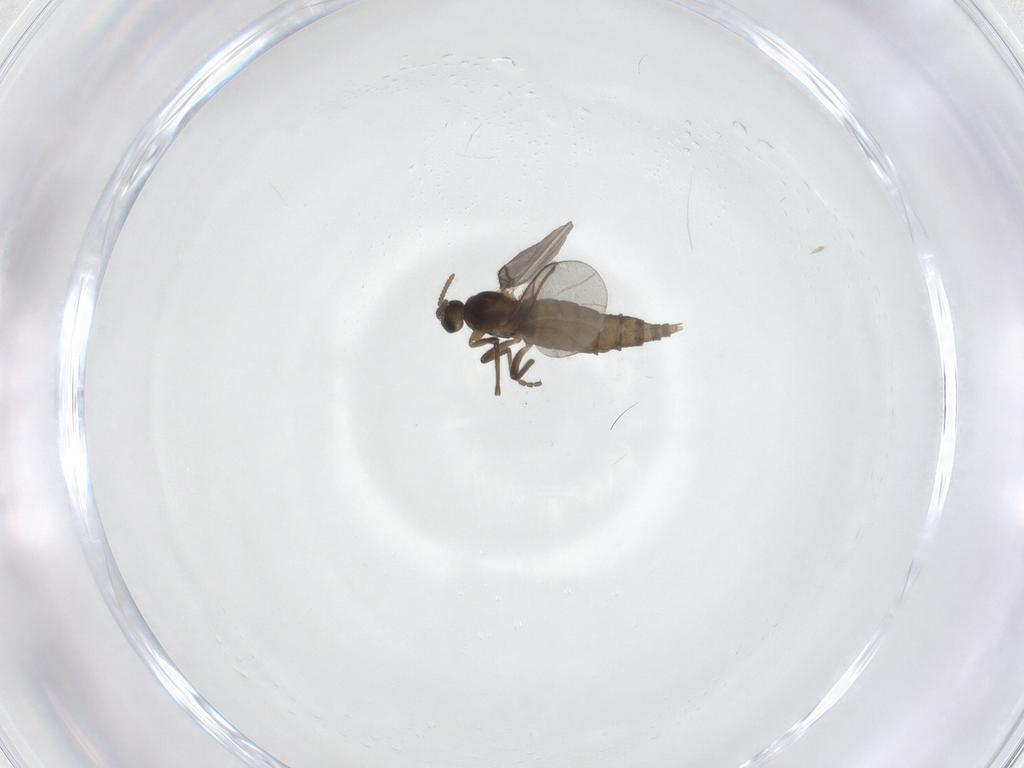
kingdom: Animalia
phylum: Arthropoda
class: Insecta
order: Diptera
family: Cecidomyiidae
